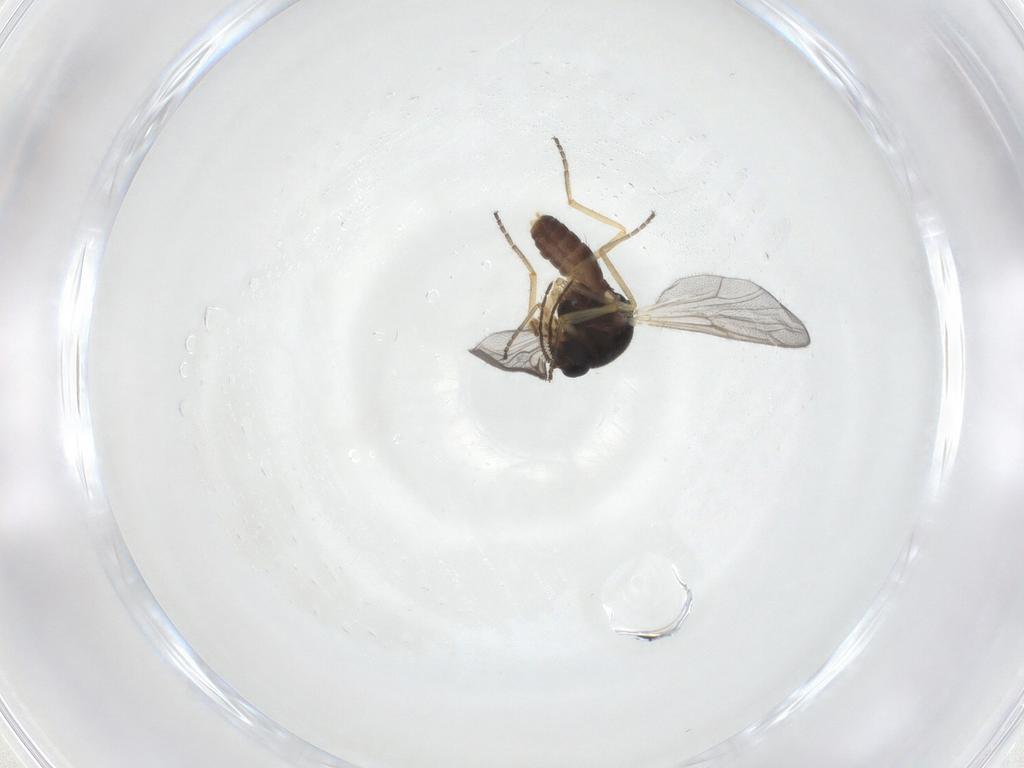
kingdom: Animalia
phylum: Arthropoda
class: Insecta
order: Diptera
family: Ceratopogonidae
